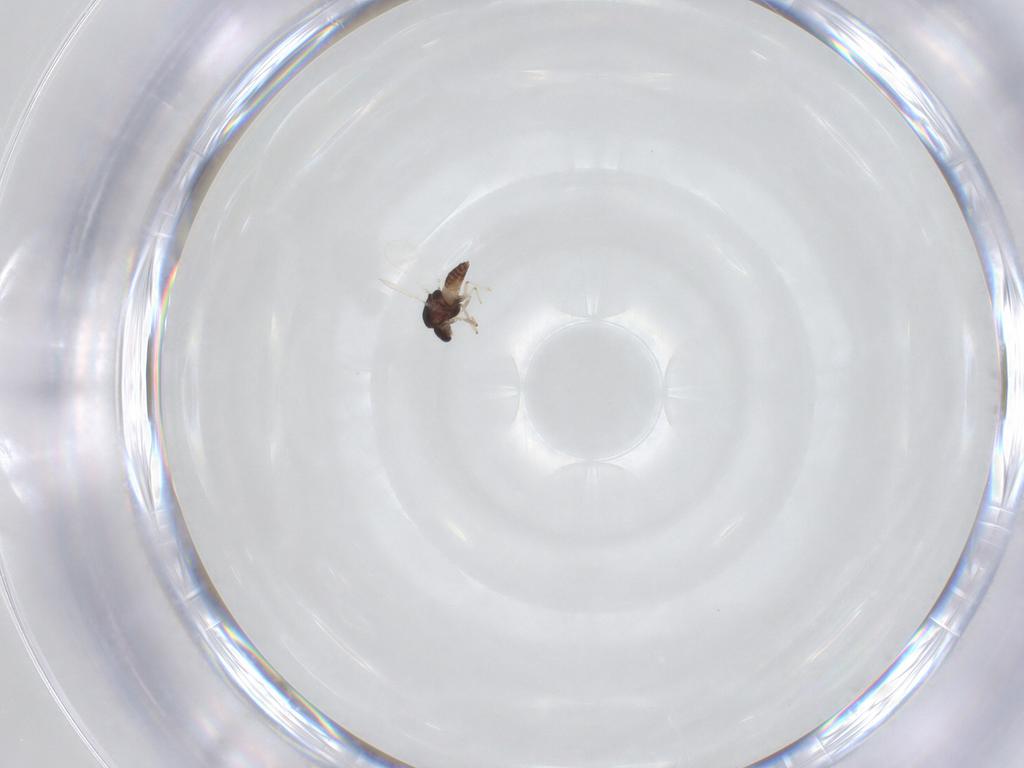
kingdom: Animalia
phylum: Arthropoda
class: Insecta
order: Diptera
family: Chironomidae
